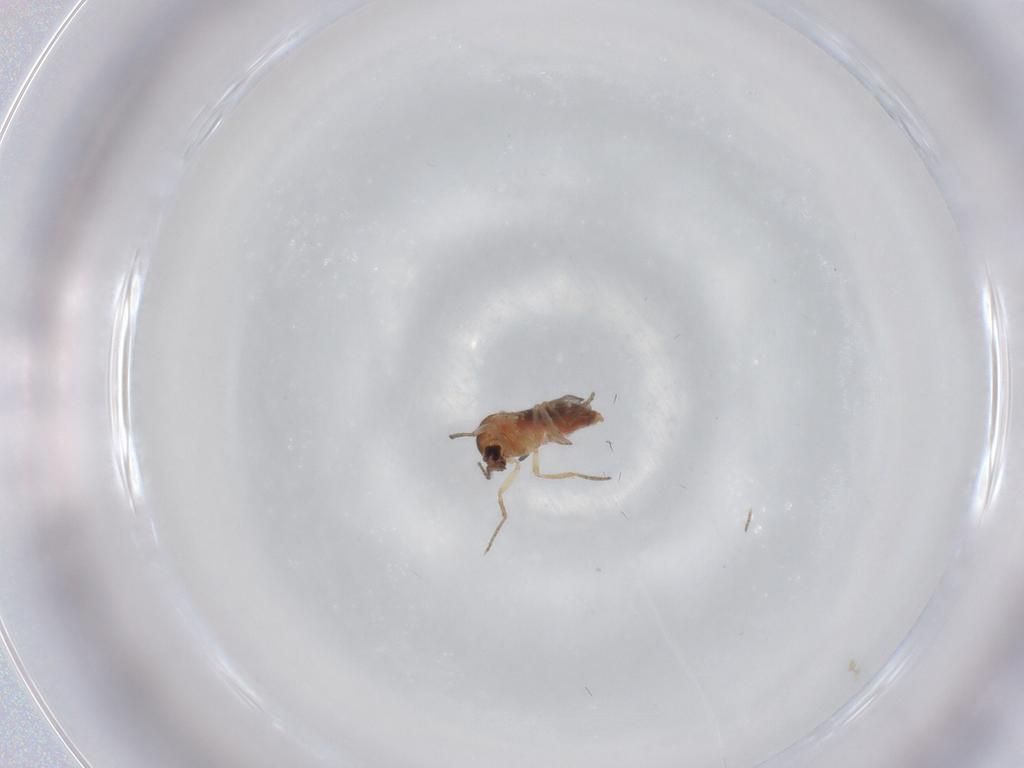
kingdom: Animalia
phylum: Arthropoda
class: Insecta
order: Diptera
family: Ceratopogonidae
